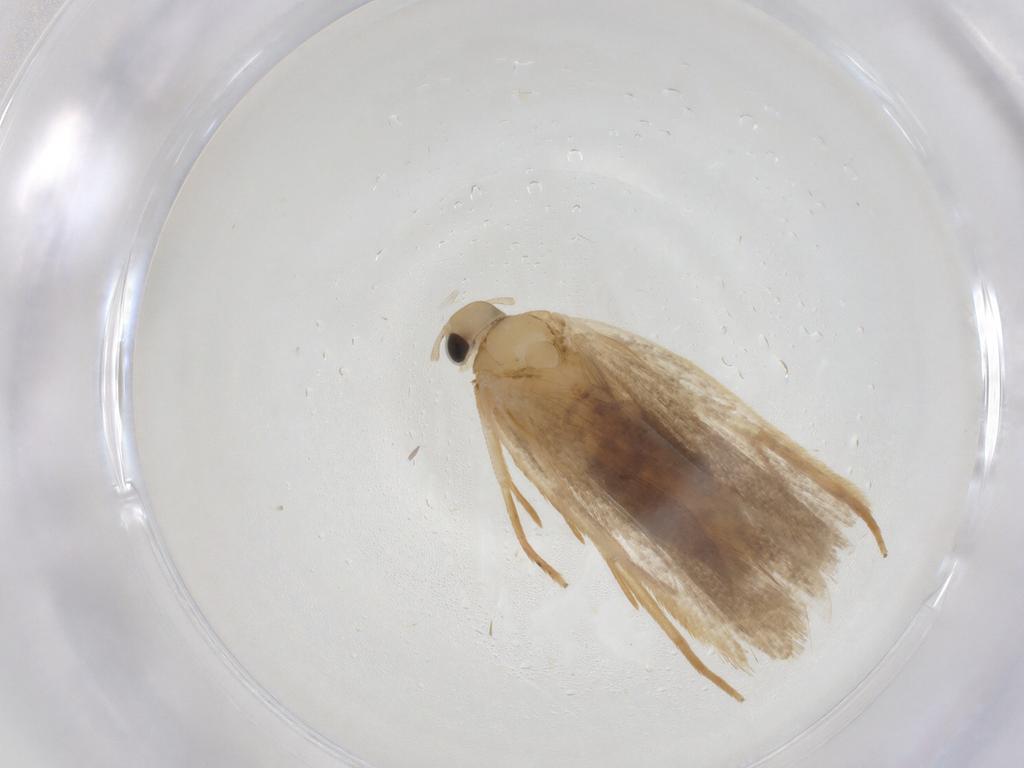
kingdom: Animalia
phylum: Arthropoda
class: Insecta
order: Lepidoptera
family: Gelechiidae
